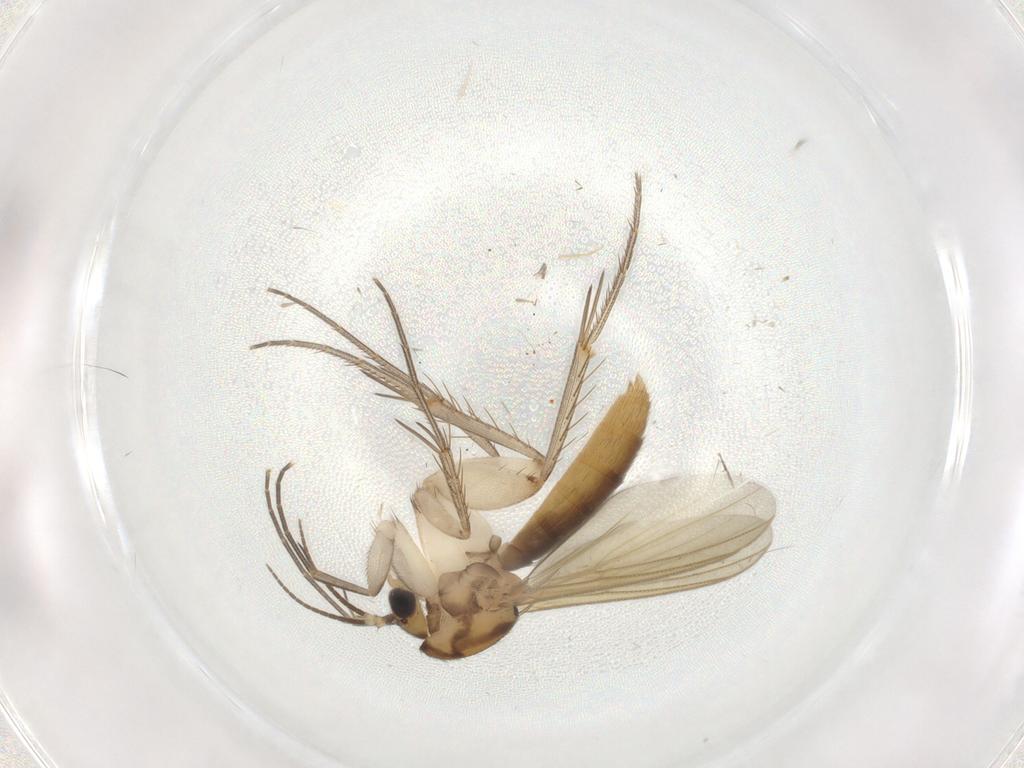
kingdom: Animalia
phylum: Arthropoda
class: Insecta
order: Diptera
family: Mycetophilidae
